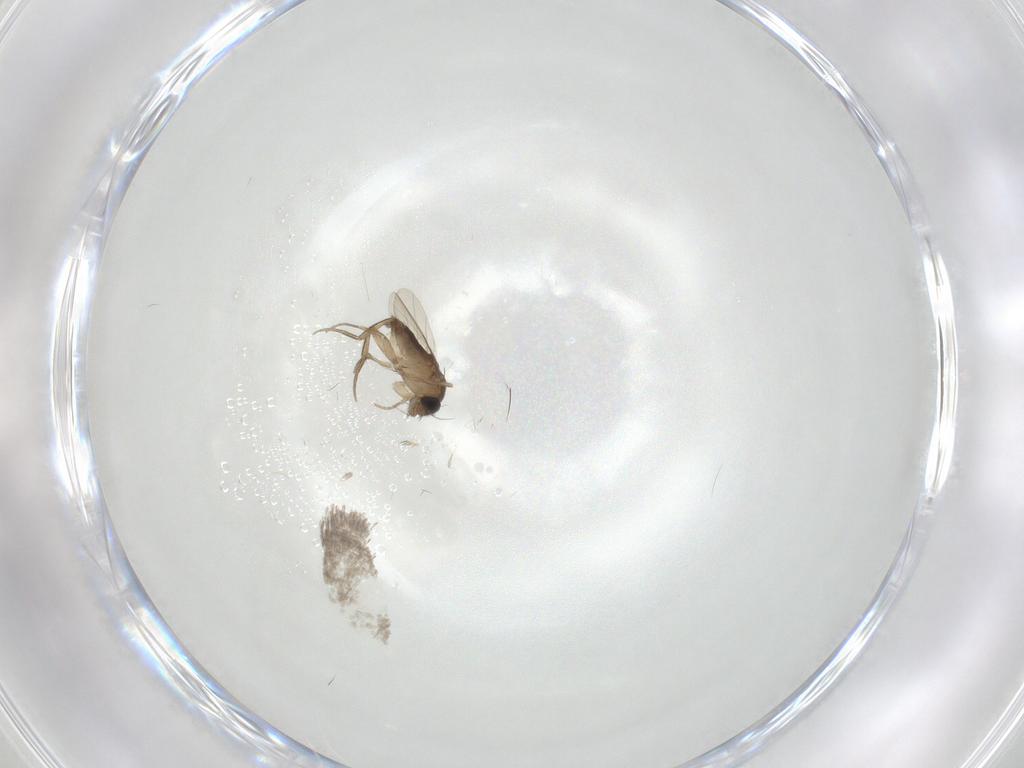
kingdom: Animalia
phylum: Arthropoda
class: Insecta
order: Diptera
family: Phoridae
